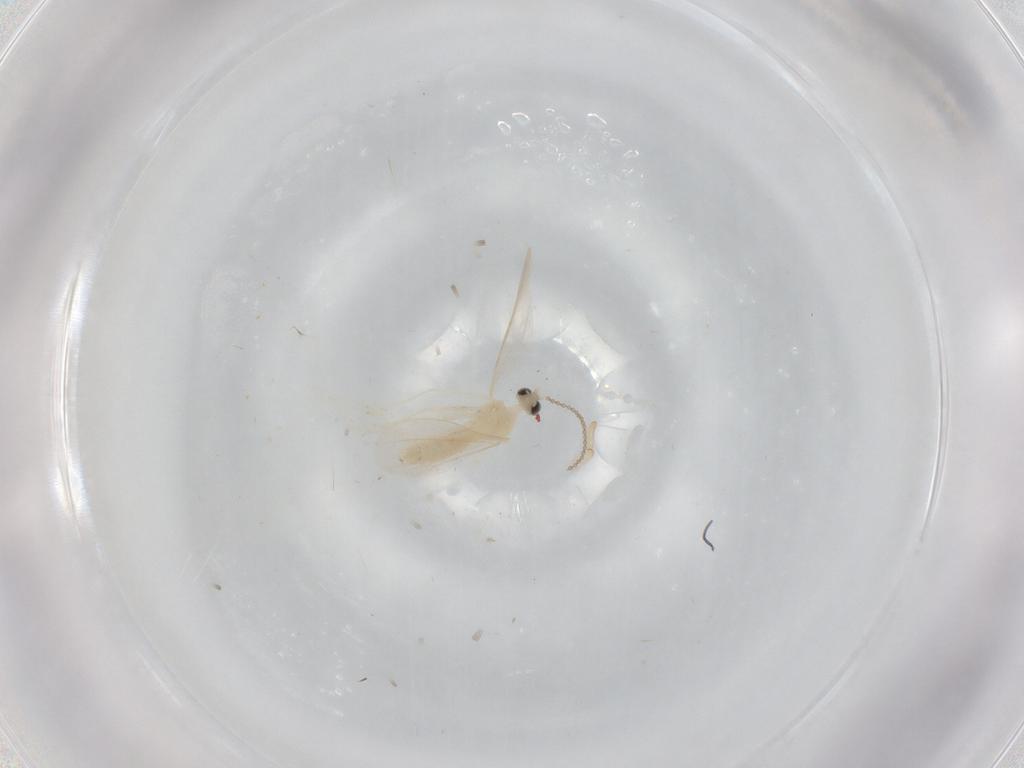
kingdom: Animalia
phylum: Arthropoda
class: Insecta
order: Diptera
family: Cecidomyiidae
